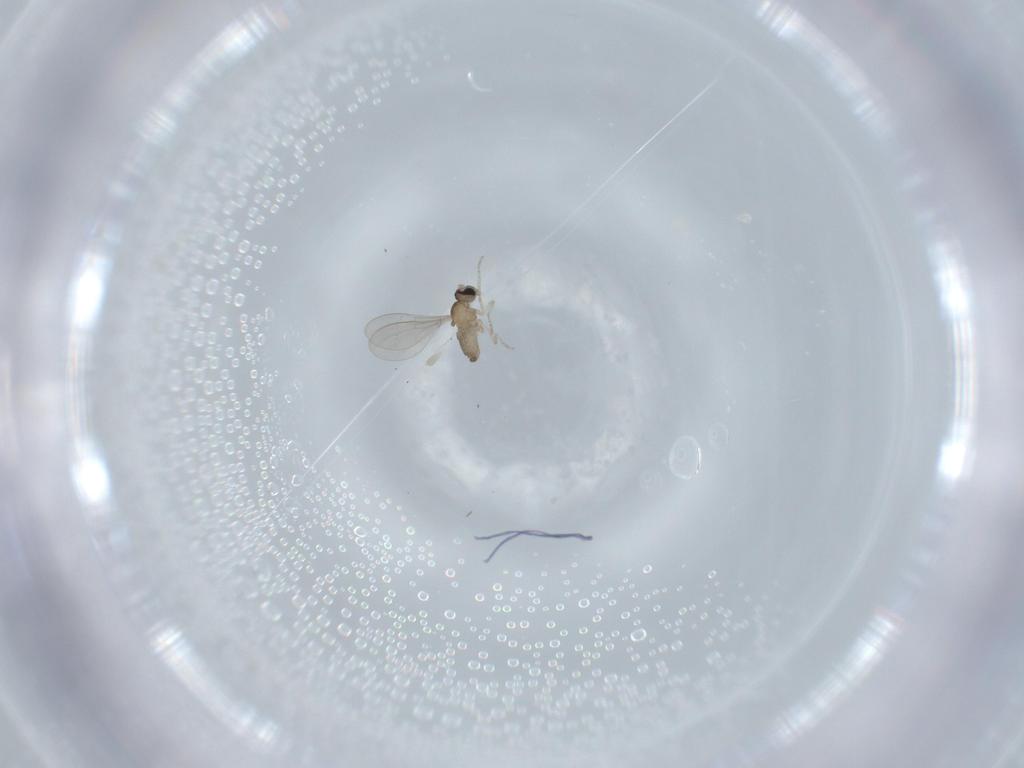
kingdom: Animalia
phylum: Arthropoda
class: Insecta
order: Diptera
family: Cecidomyiidae
